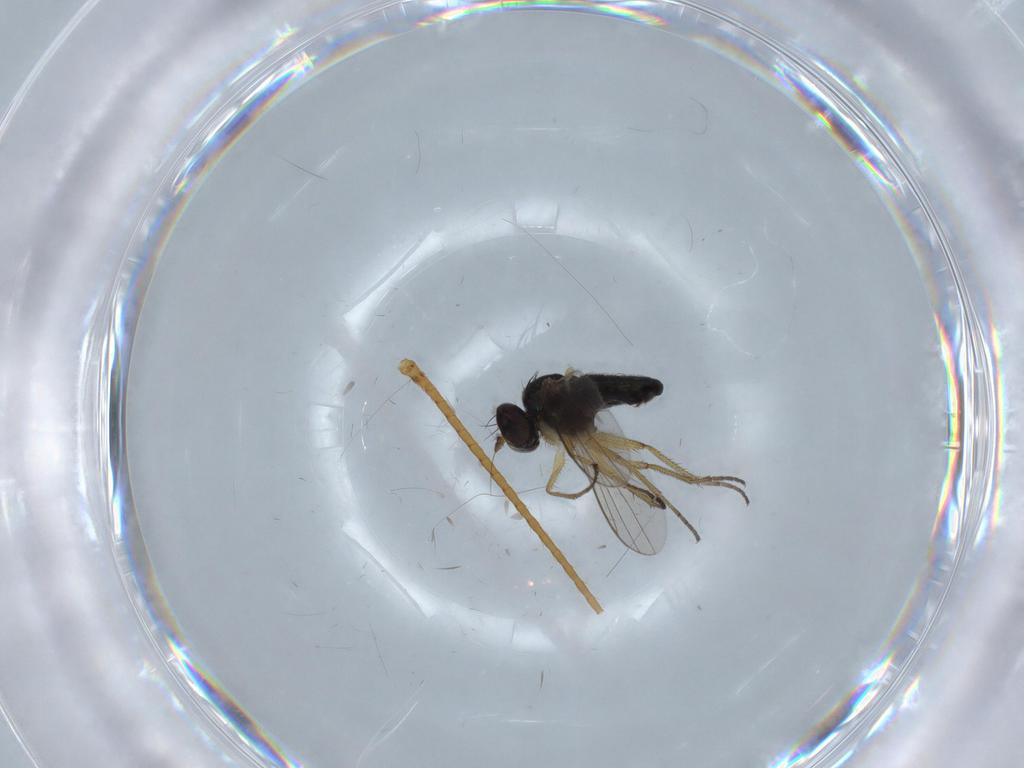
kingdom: Animalia
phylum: Arthropoda
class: Insecta
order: Diptera
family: Chironomidae
